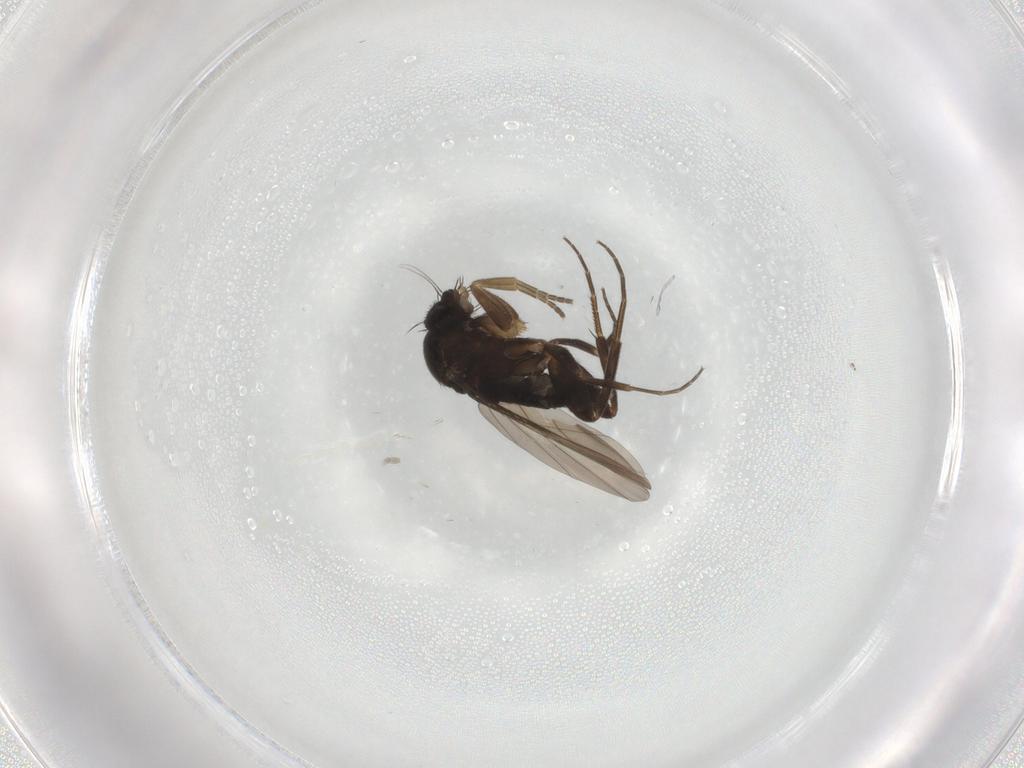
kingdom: Animalia
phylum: Arthropoda
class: Insecta
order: Diptera
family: Phoridae
